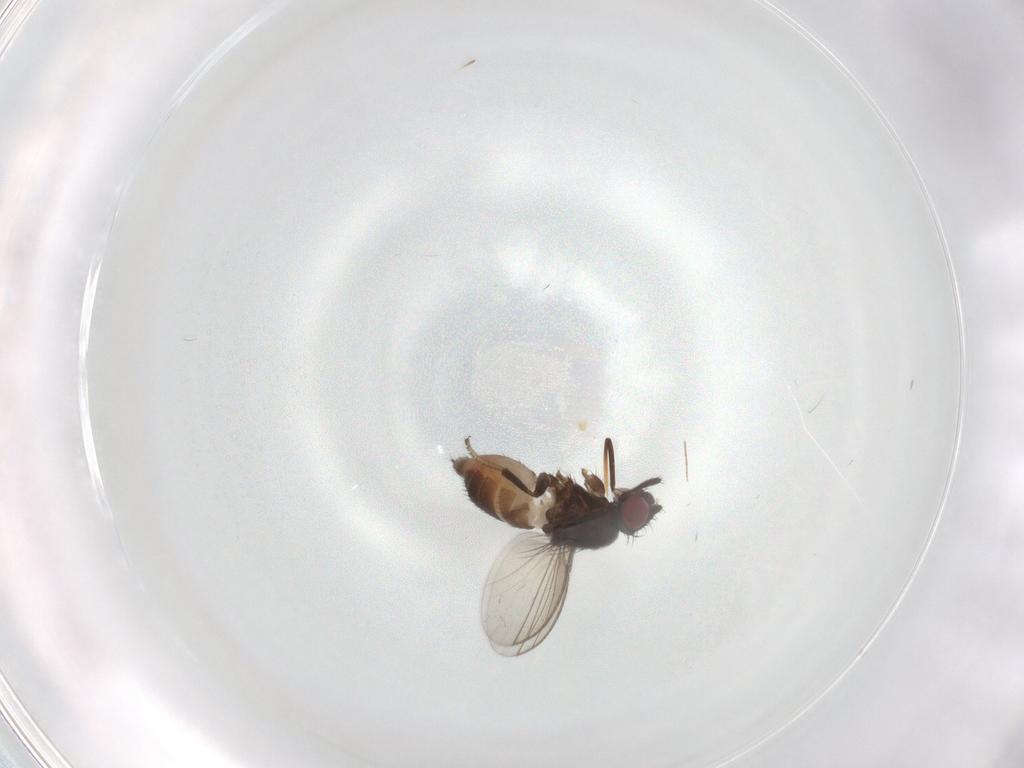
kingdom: Animalia
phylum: Arthropoda
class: Insecta
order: Diptera
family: Milichiidae
